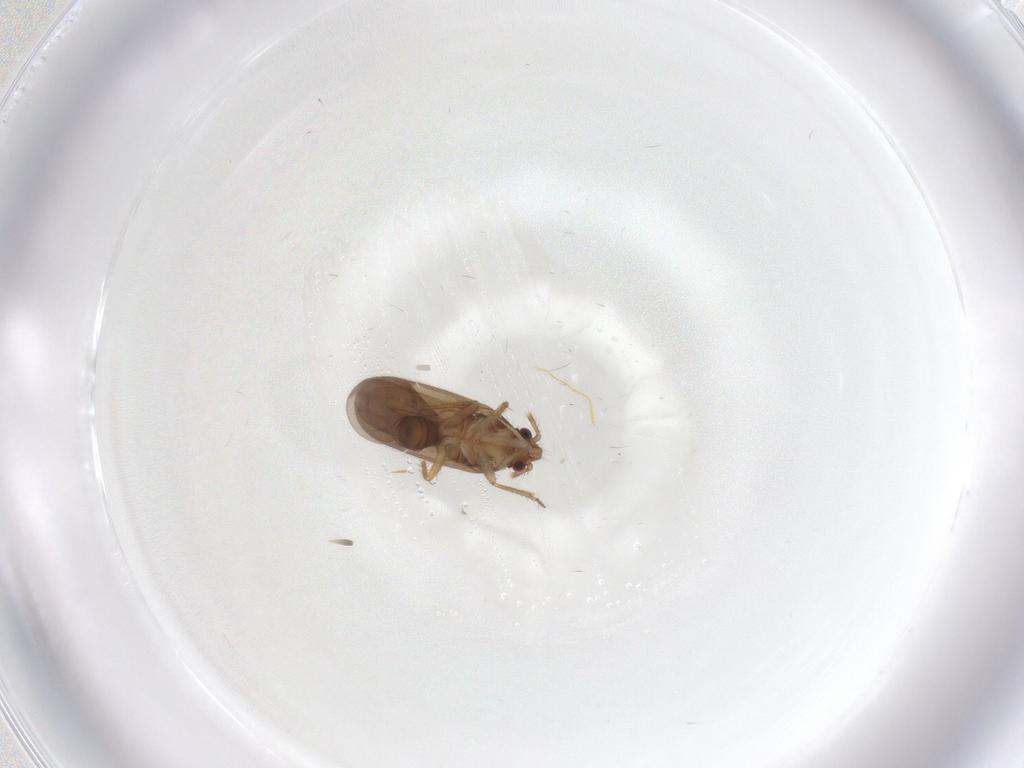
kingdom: Animalia
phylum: Arthropoda
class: Insecta
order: Hemiptera
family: Ceratocombidae
